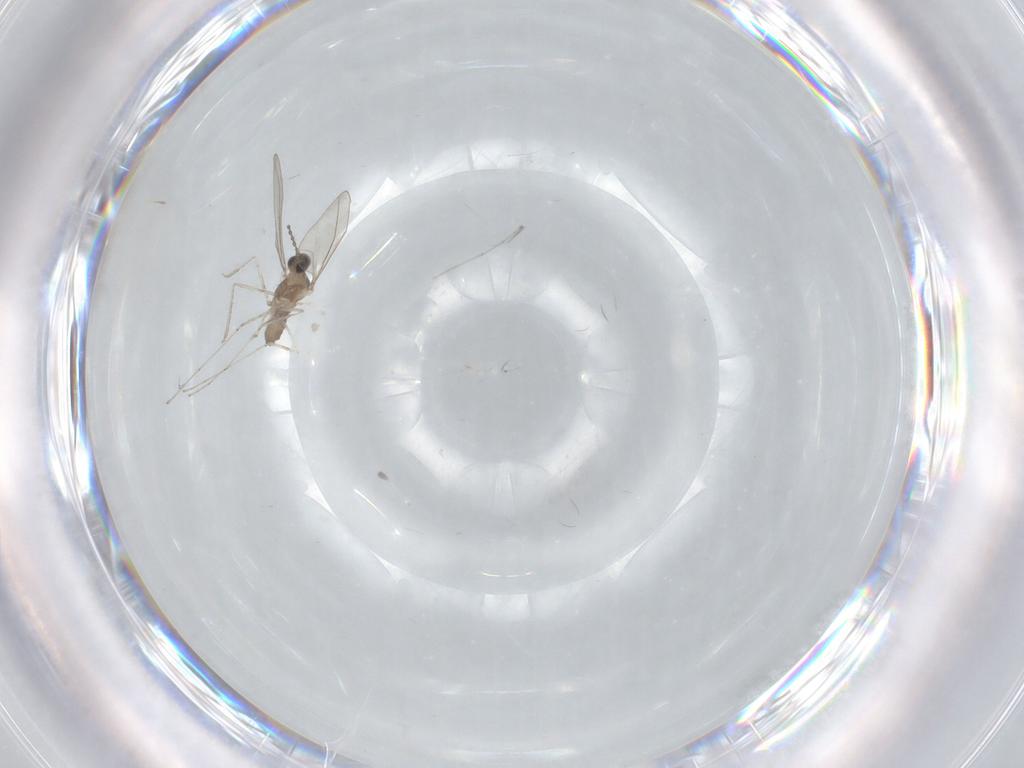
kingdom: Animalia
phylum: Arthropoda
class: Insecta
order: Diptera
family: Cecidomyiidae
